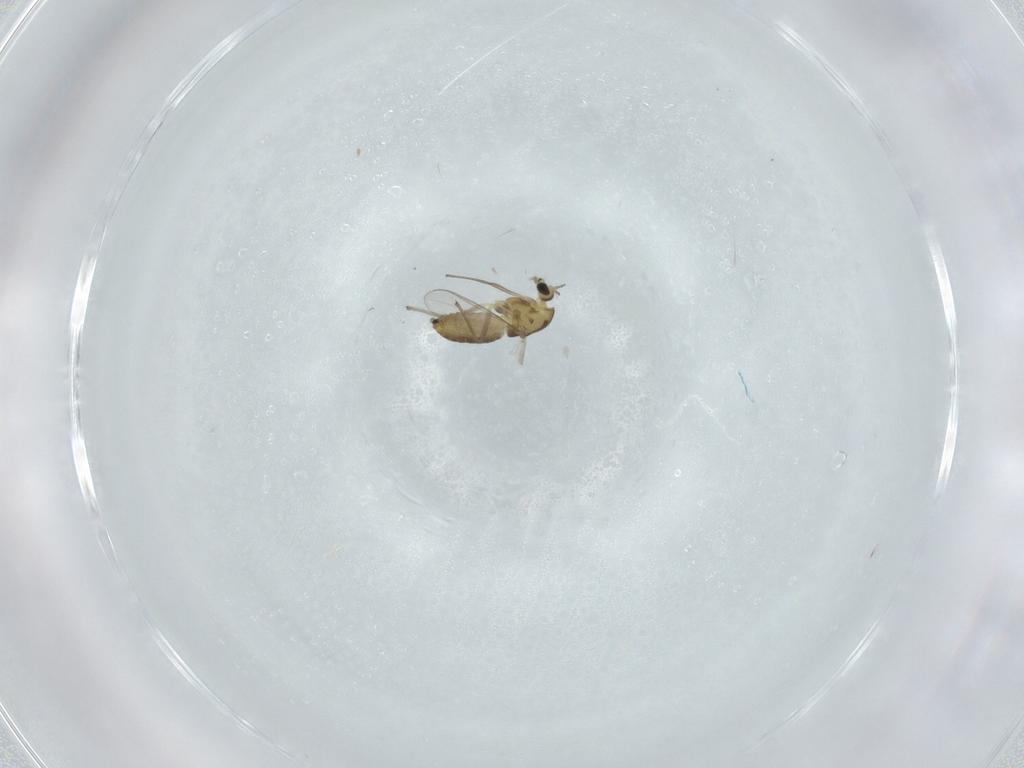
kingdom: Animalia
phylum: Arthropoda
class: Insecta
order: Diptera
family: Chironomidae
